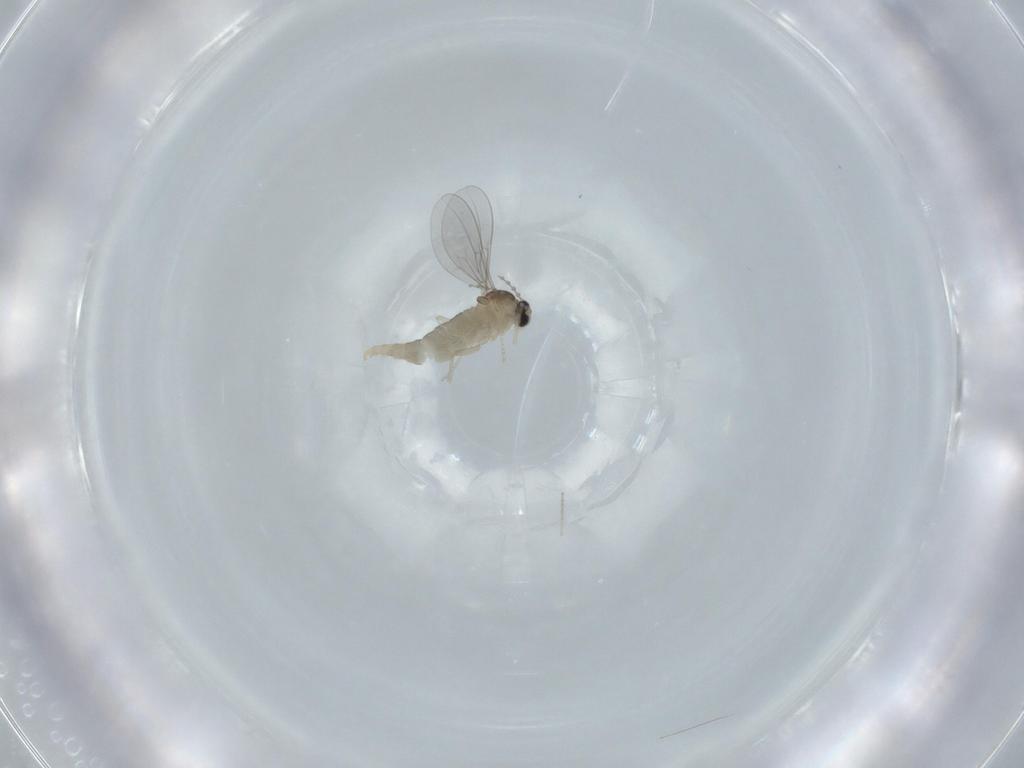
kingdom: Animalia
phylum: Arthropoda
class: Insecta
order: Diptera
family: Cecidomyiidae
